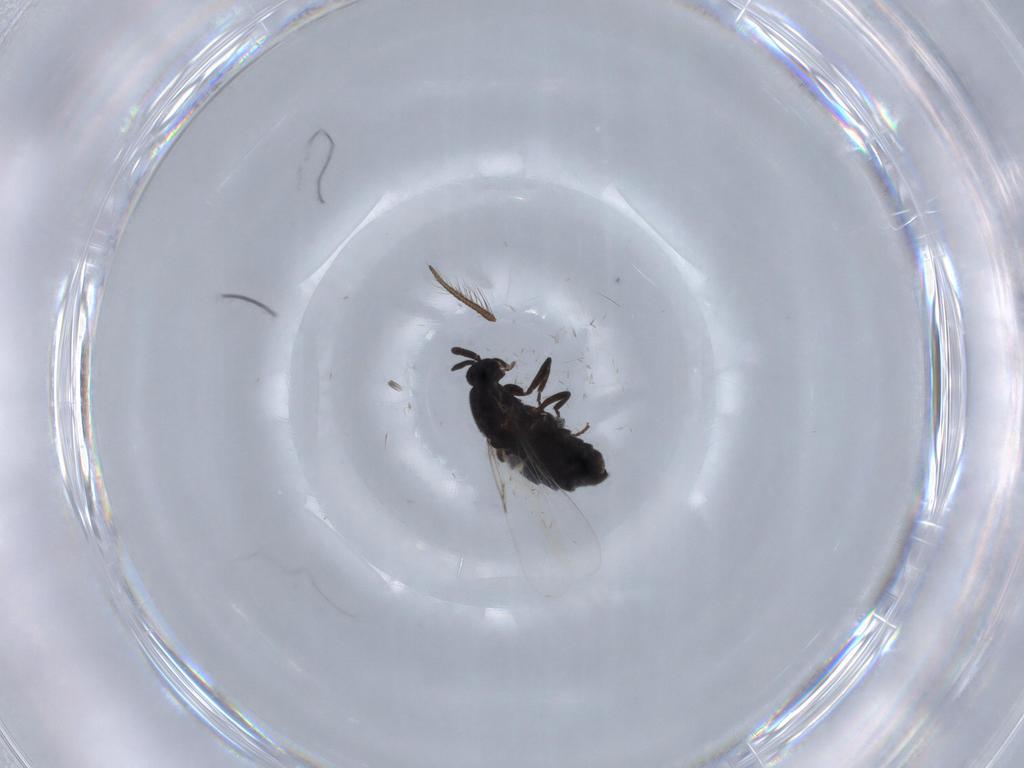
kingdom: Animalia
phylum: Arthropoda
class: Insecta
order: Diptera
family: Scatopsidae
